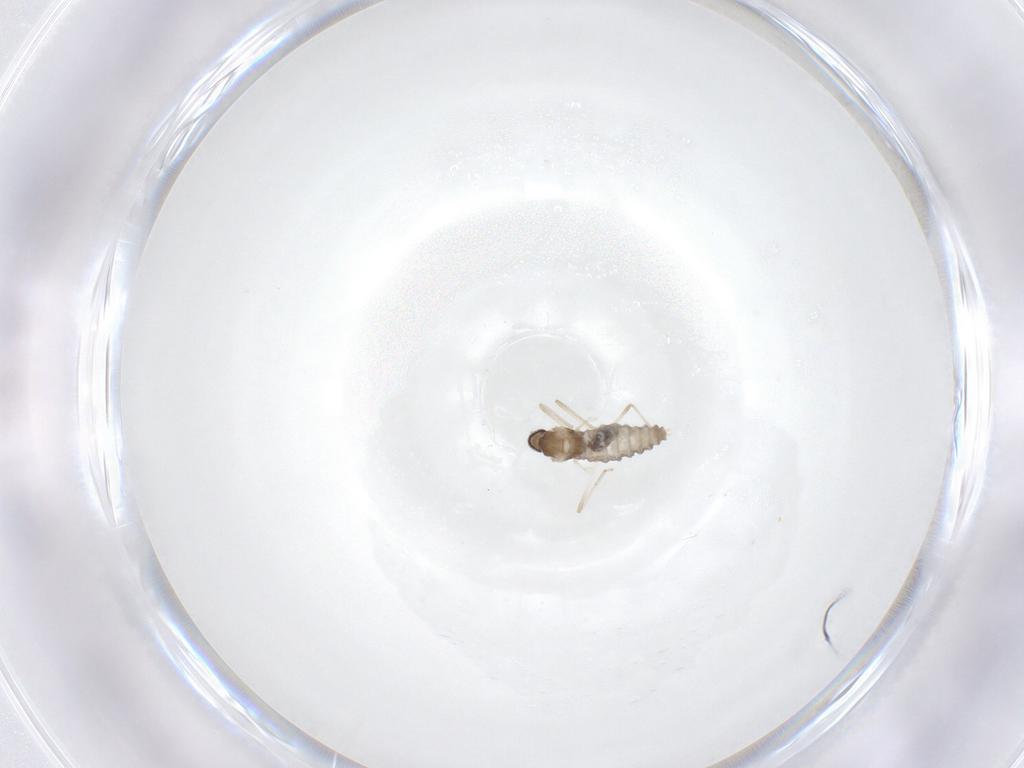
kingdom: Animalia
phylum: Arthropoda
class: Insecta
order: Diptera
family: Cecidomyiidae
